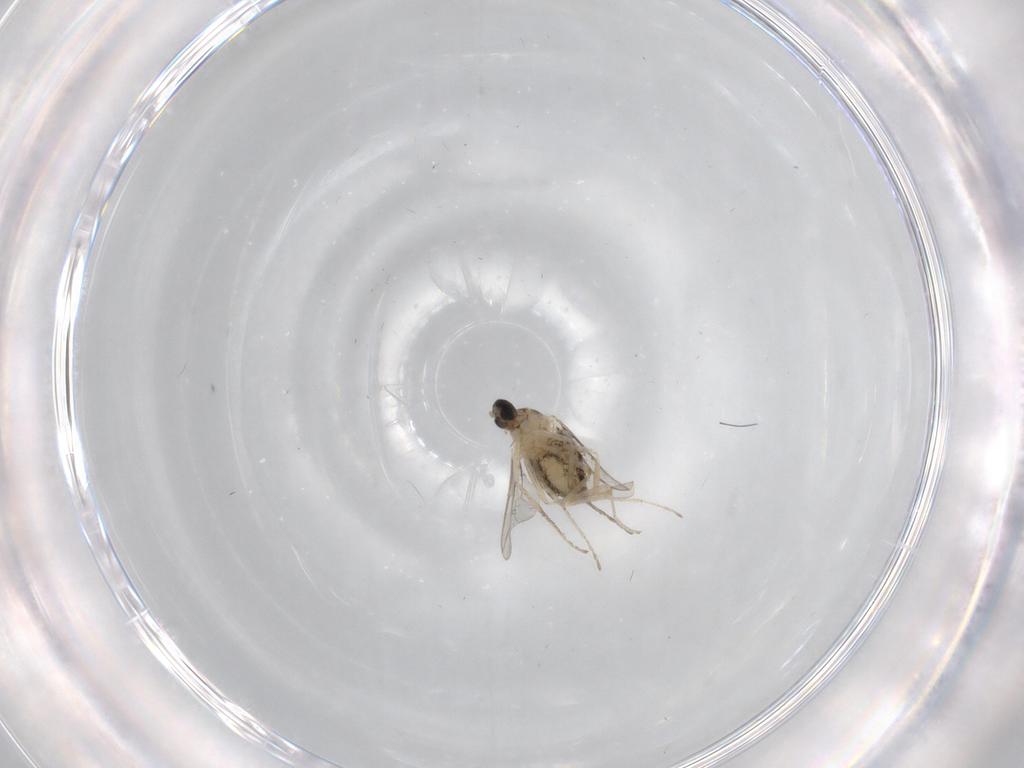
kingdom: Animalia
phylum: Arthropoda
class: Insecta
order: Diptera
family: Cecidomyiidae
